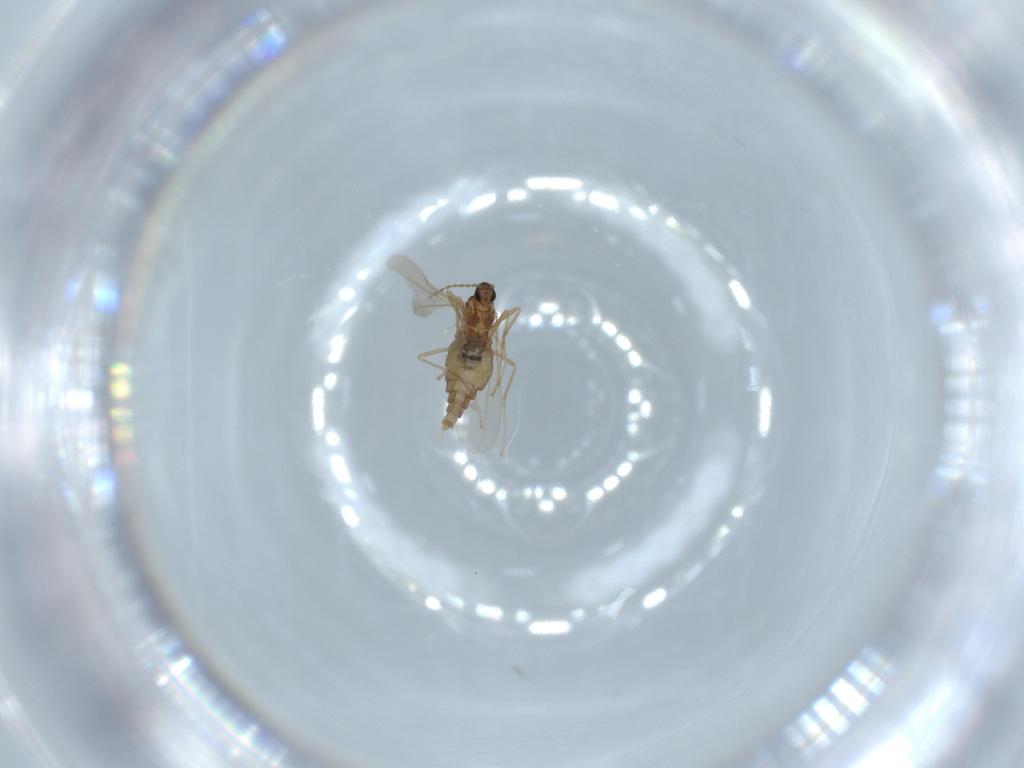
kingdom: Animalia
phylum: Arthropoda
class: Insecta
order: Diptera
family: Cecidomyiidae
